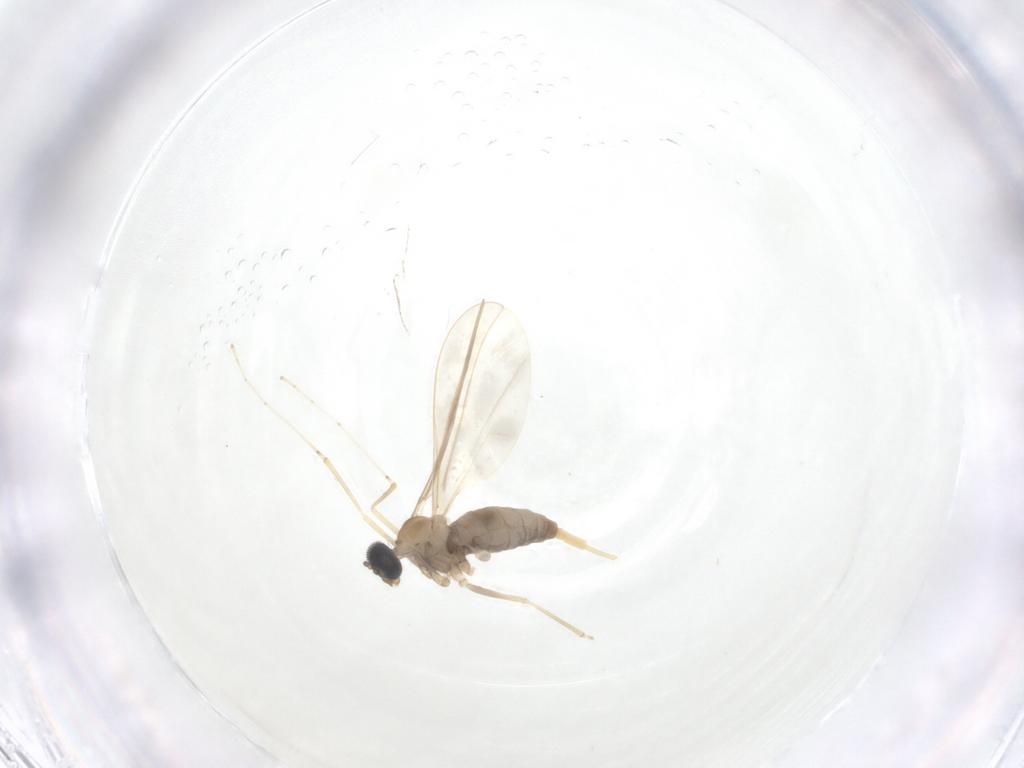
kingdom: Animalia
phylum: Arthropoda
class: Insecta
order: Diptera
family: Cecidomyiidae
